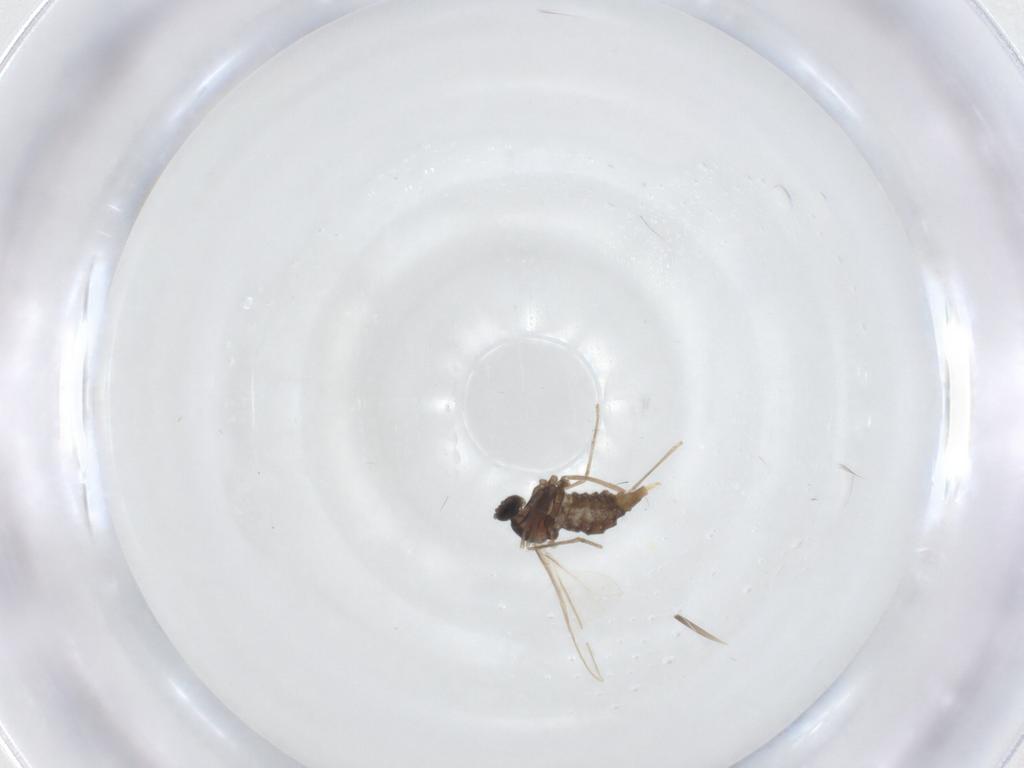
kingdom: Animalia
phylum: Arthropoda
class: Insecta
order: Diptera
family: Cecidomyiidae
